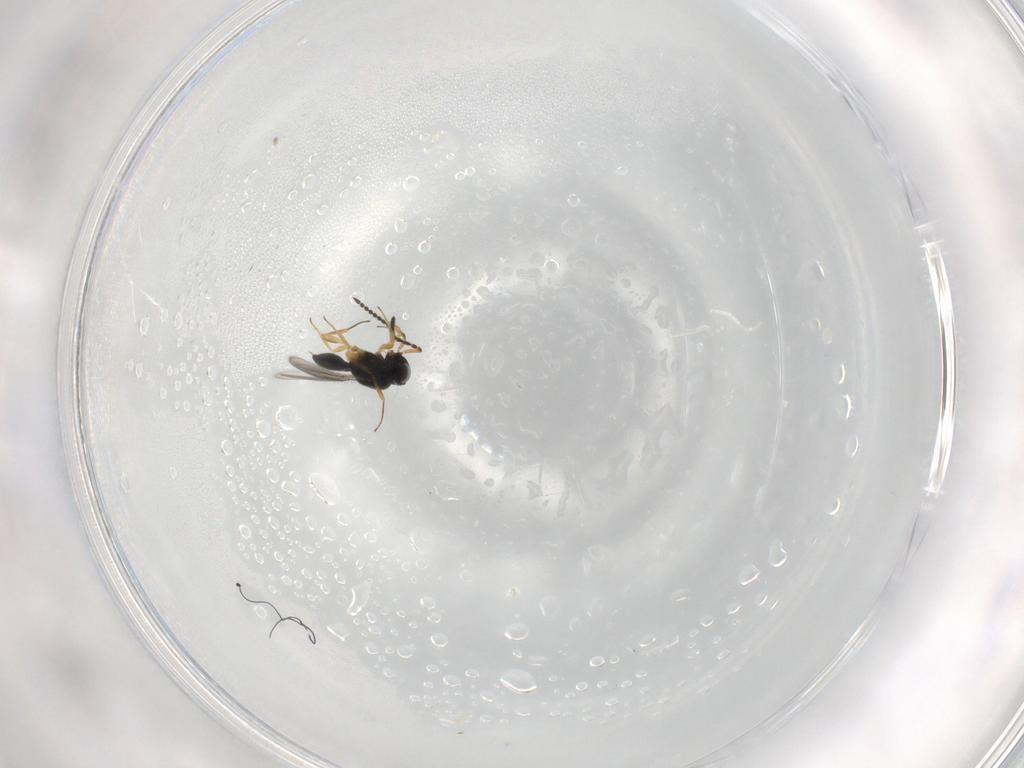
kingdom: Animalia
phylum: Arthropoda
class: Insecta
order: Hymenoptera
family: Scelionidae
